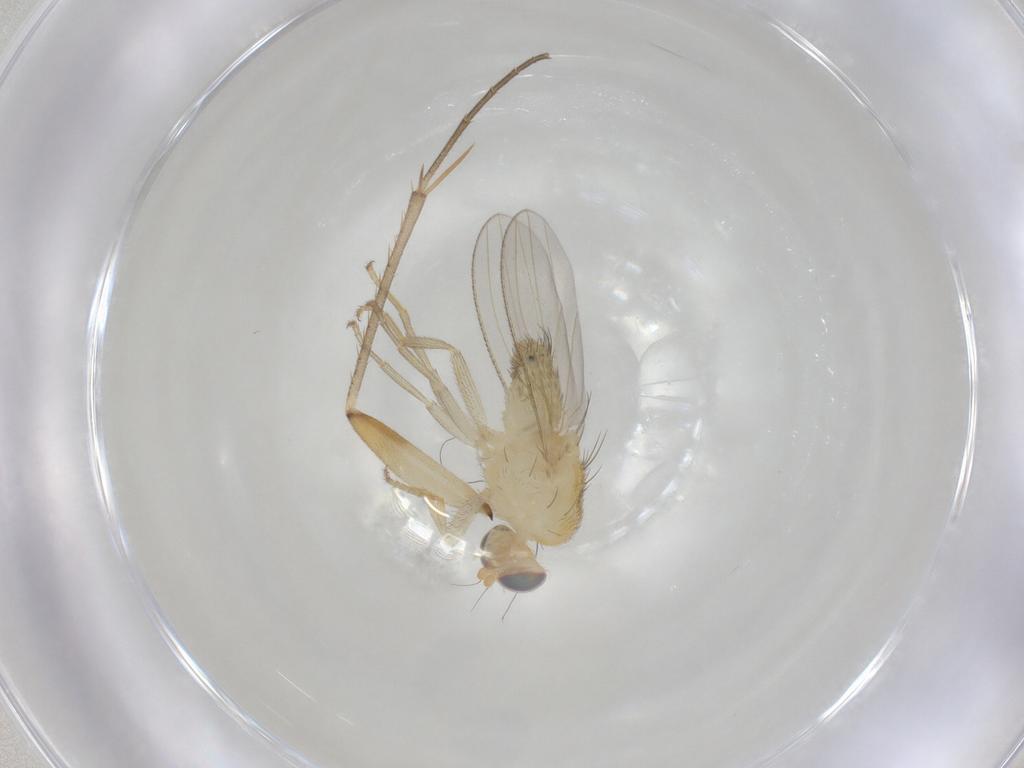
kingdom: Animalia
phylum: Arthropoda
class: Insecta
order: Diptera
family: Chyromyidae
